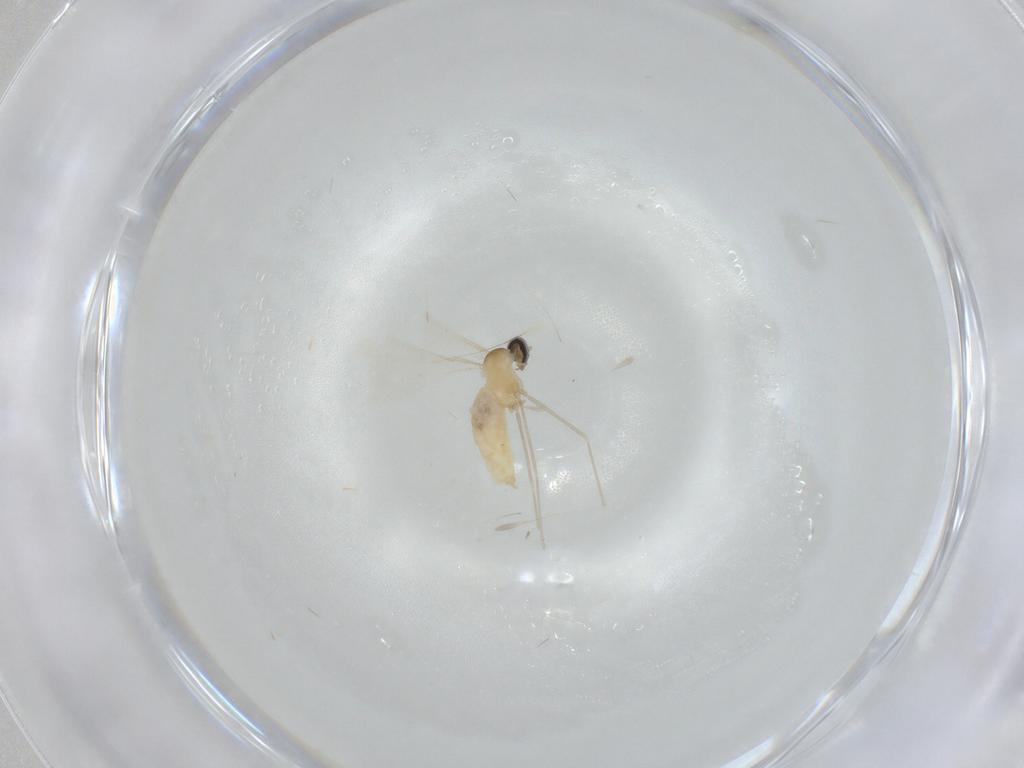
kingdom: Animalia
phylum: Arthropoda
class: Insecta
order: Diptera
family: Cecidomyiidae
